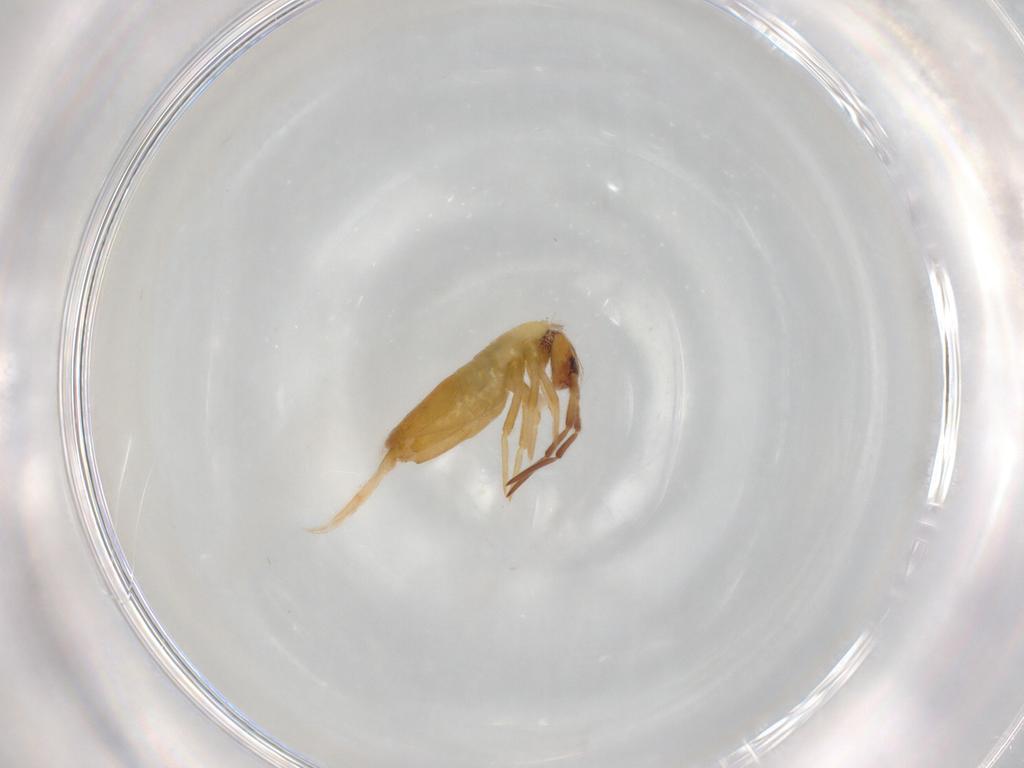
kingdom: Animalia
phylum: Arthropoda
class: Collembola
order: Entomobryomorpha
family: Entomobryidae
